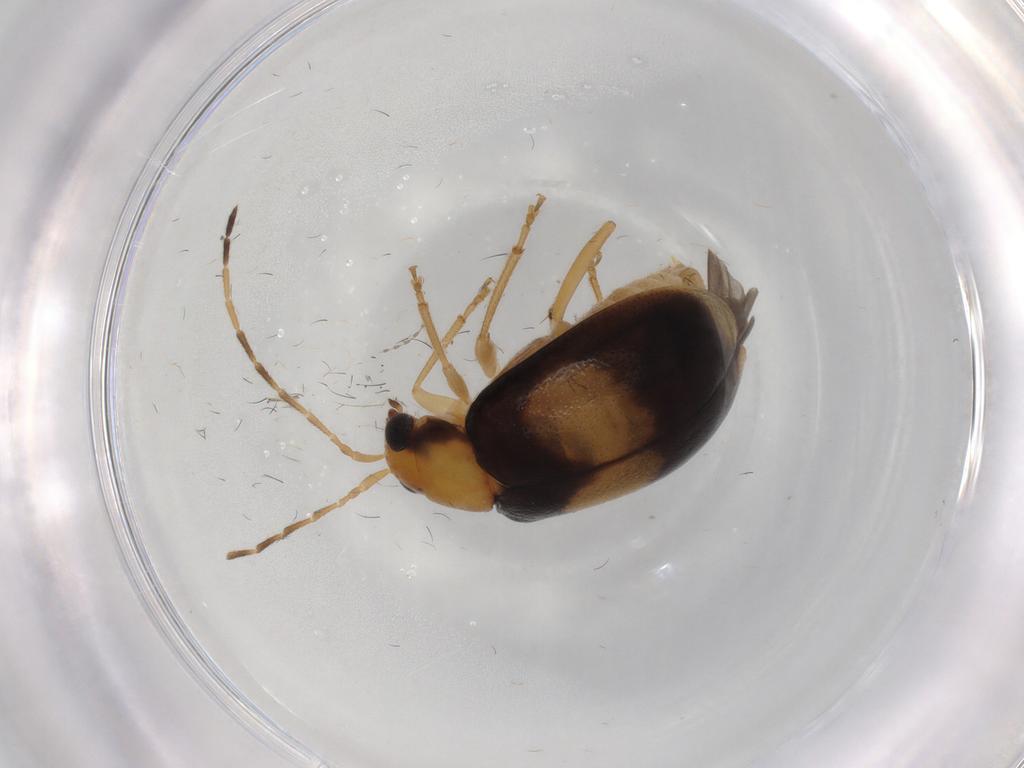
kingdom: Animalia
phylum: Arthropoda
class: Insecta
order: Coleoptera
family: Chrysomelidae
